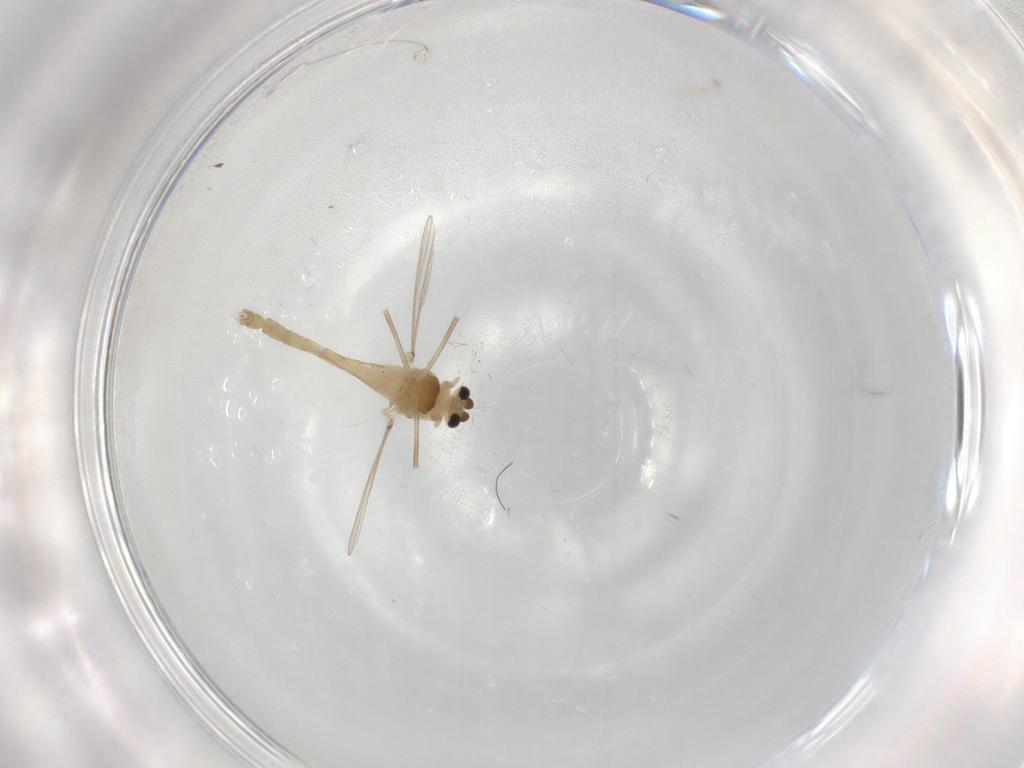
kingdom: Animalia
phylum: Arthropoda
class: Insecta
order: Diptera
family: Chironomidae
